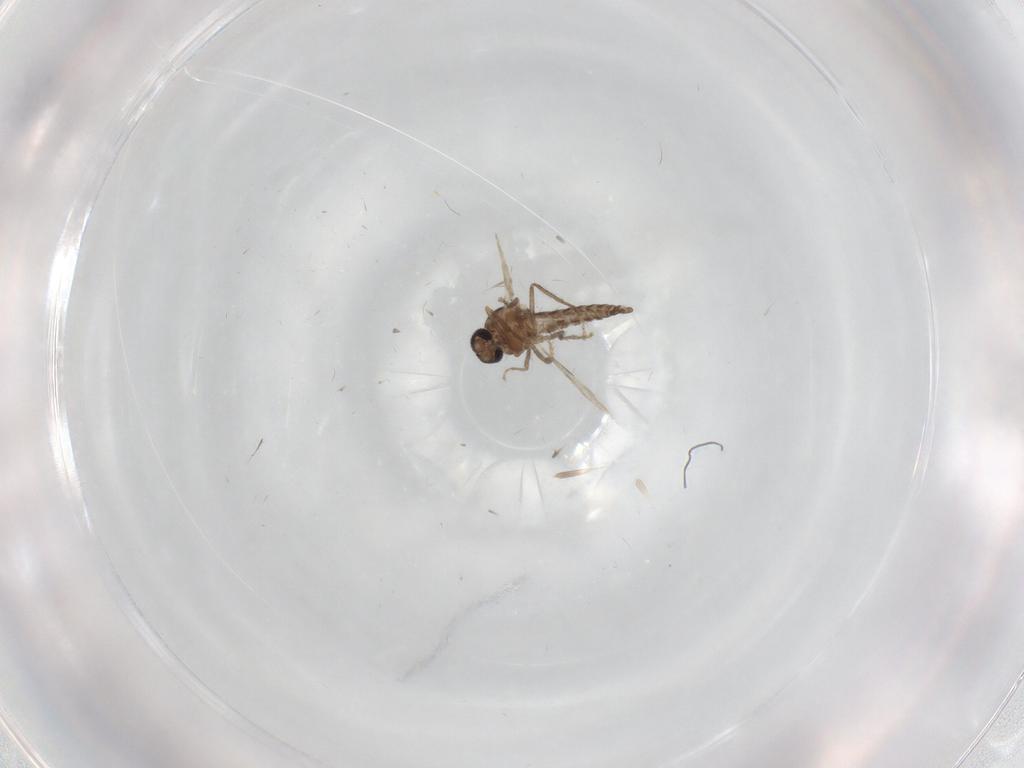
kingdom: Animalia
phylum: Arthropoda
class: Insecta
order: Diptera
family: Ceratopogonidae
